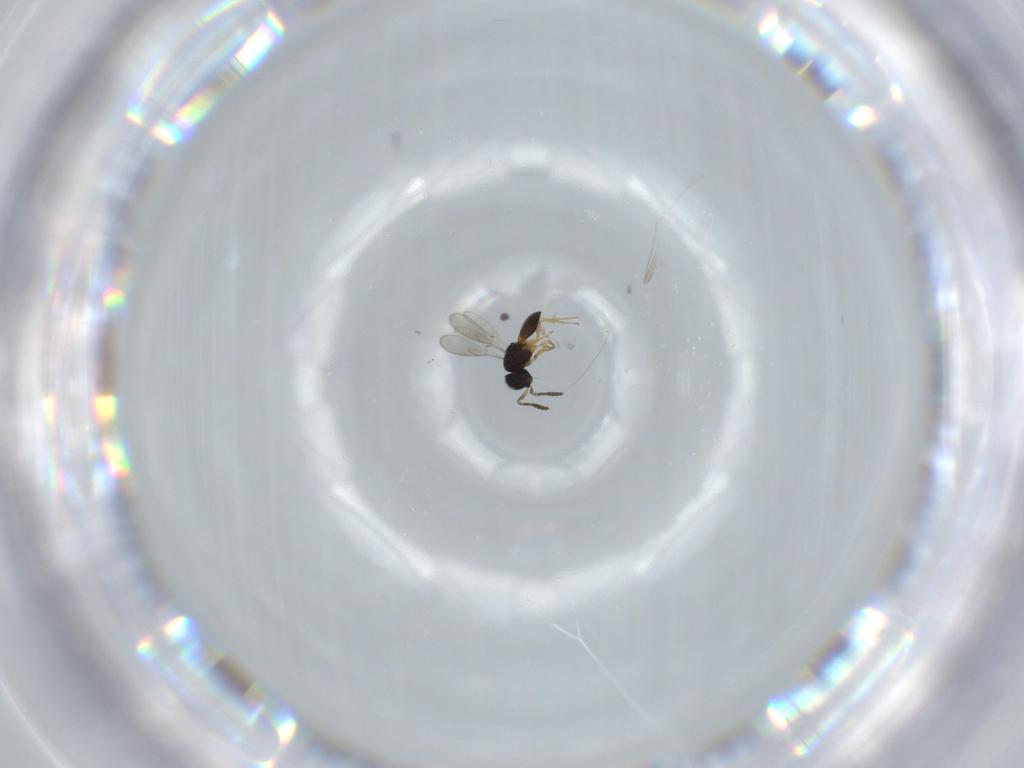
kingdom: Animalia
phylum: Arthropoda
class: Insecta
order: Hymenoptera
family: Scelionidae
